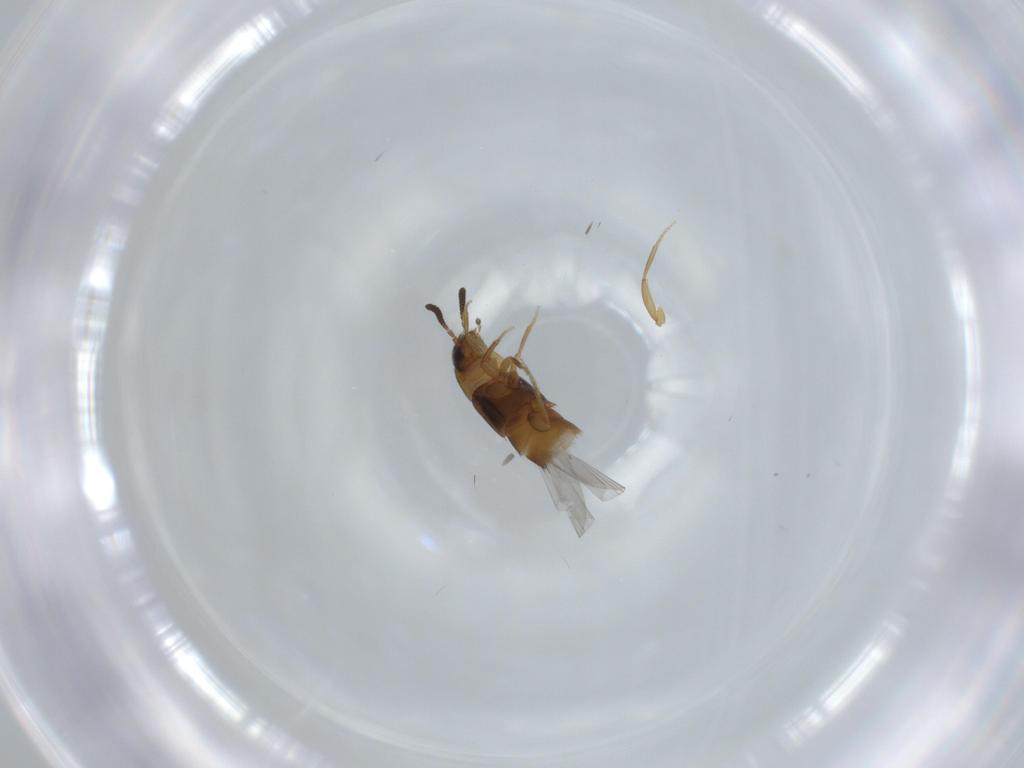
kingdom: Animalia
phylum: Arthropoda
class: Insecta
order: Coleoptera
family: Staphylinidae
